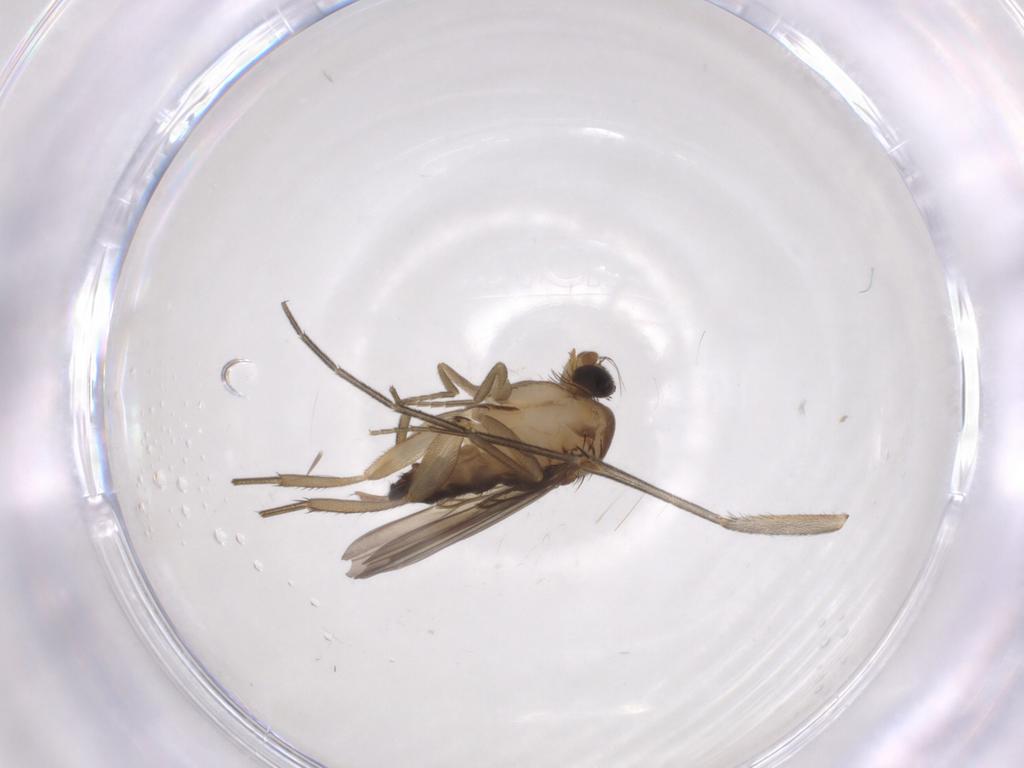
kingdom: Animalia
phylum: Arthropoda
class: Insecta
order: Diptera
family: Keroplatidae
